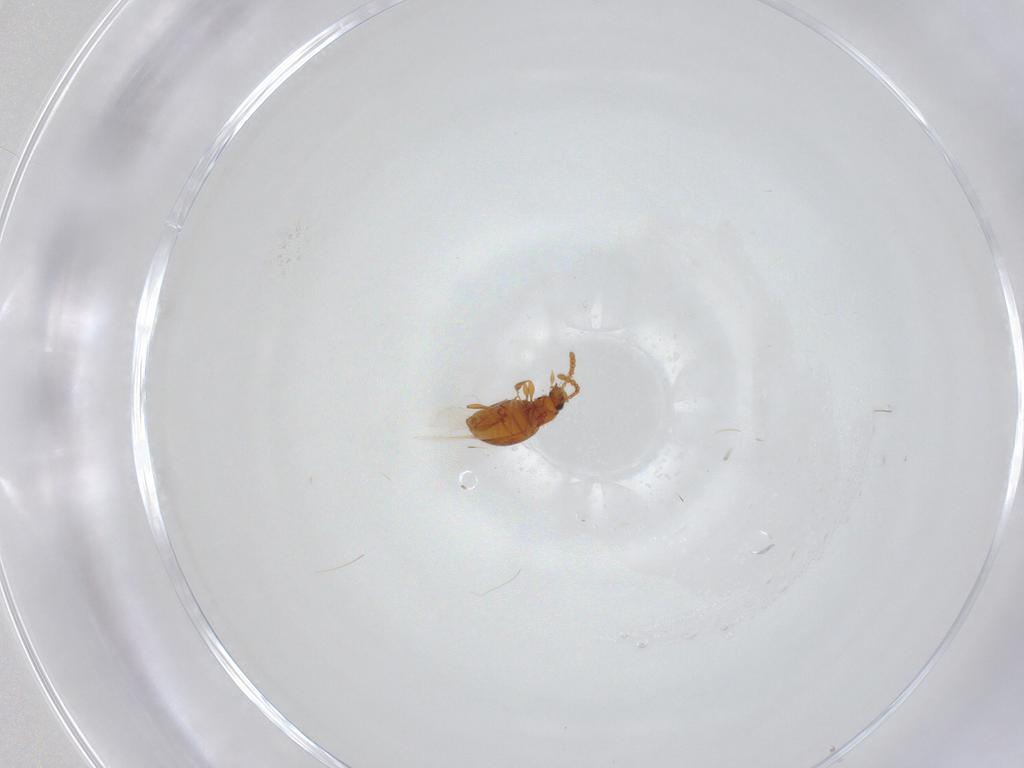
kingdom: Animalia
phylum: Arthropoda
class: Insecta
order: Coleoptera
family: Staphylinidae
